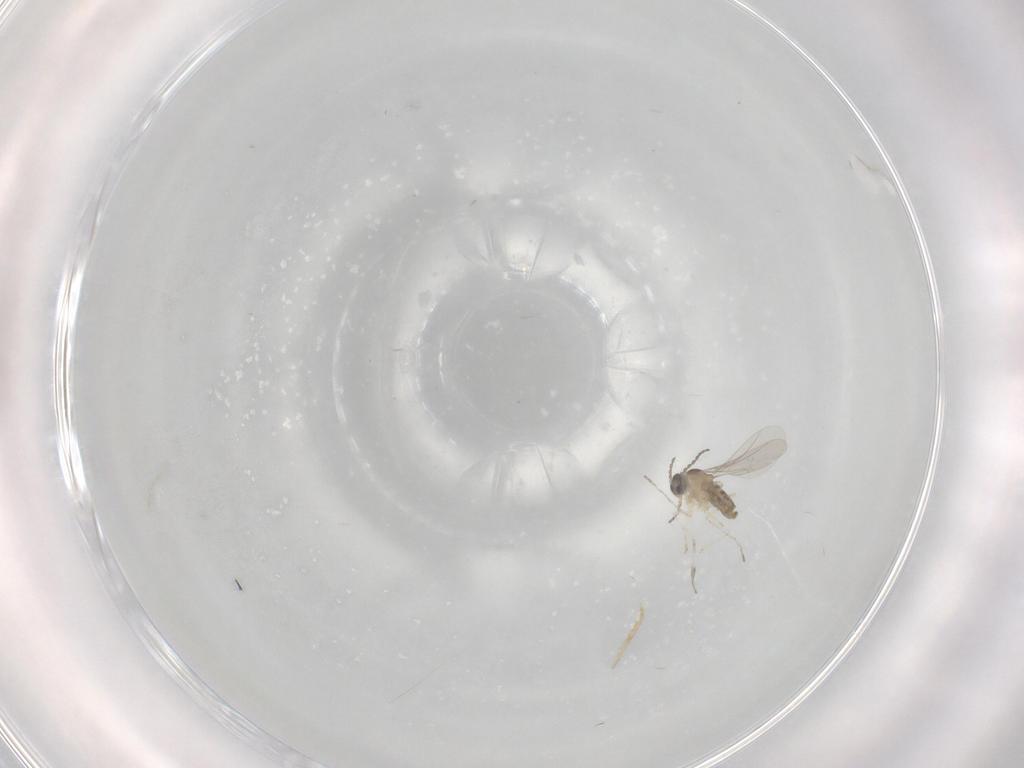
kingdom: Animalia
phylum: Arthropoda
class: Insecta
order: Diptera
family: Cecidomyiidae
